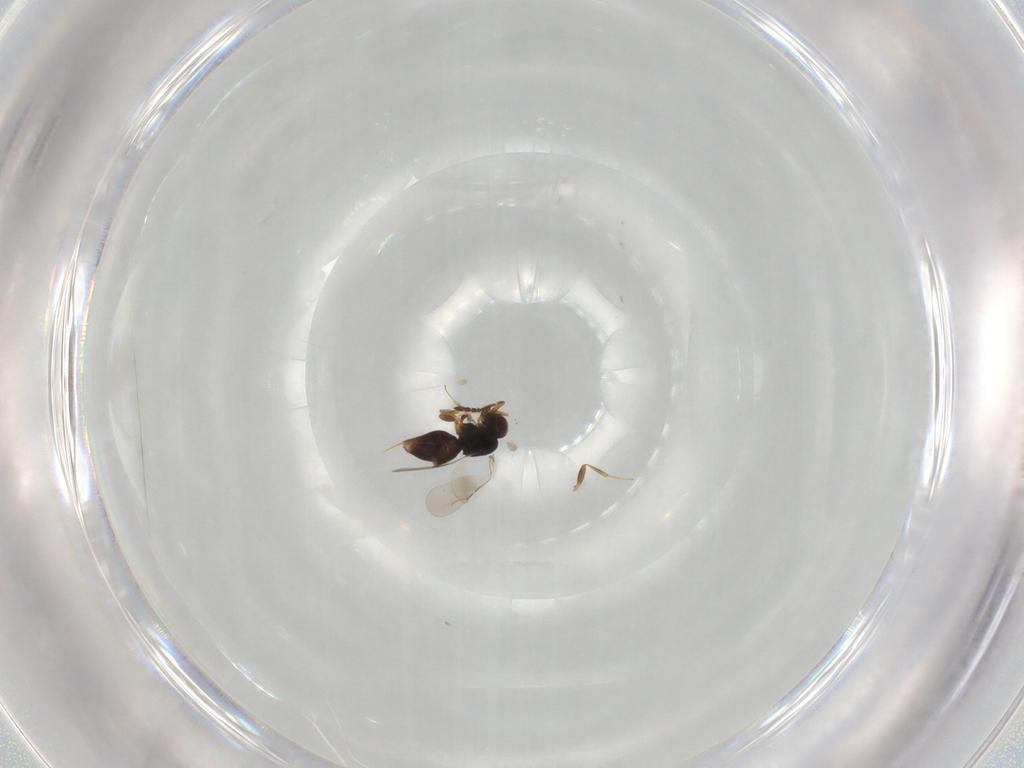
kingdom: Animalia
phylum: Arthropoda
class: Insecta
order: Hymenoptera
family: Ceraphronidae
